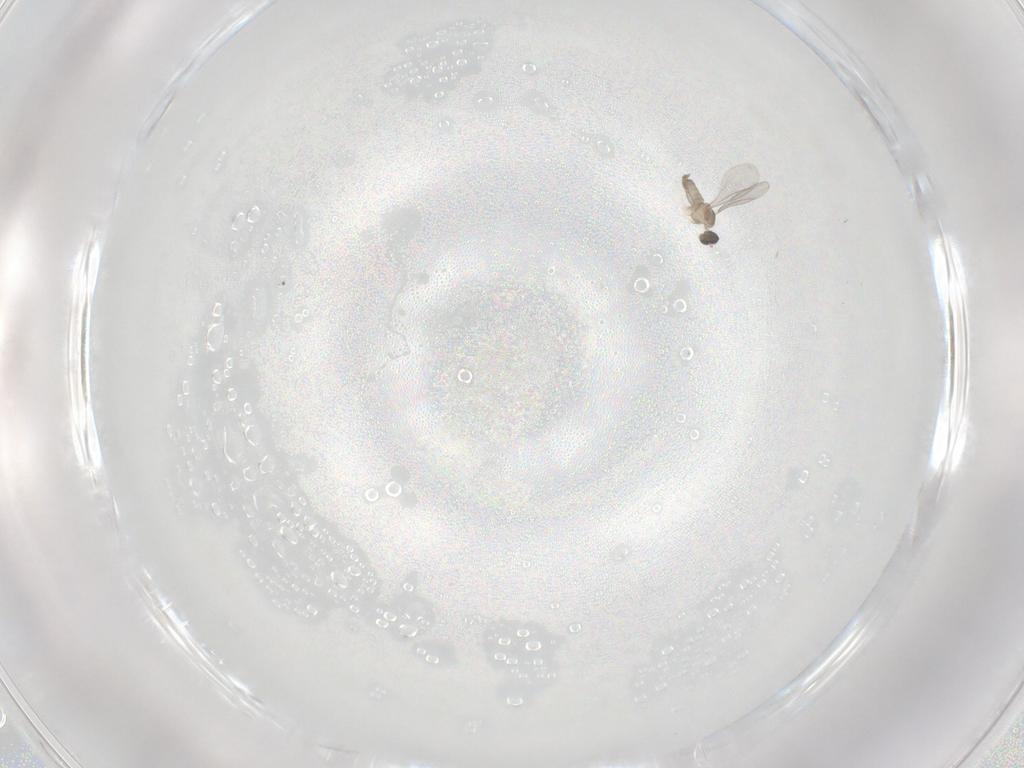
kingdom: Animalia
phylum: Arthropoda
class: Insecta
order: Diptera
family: Cecidomyiidae
